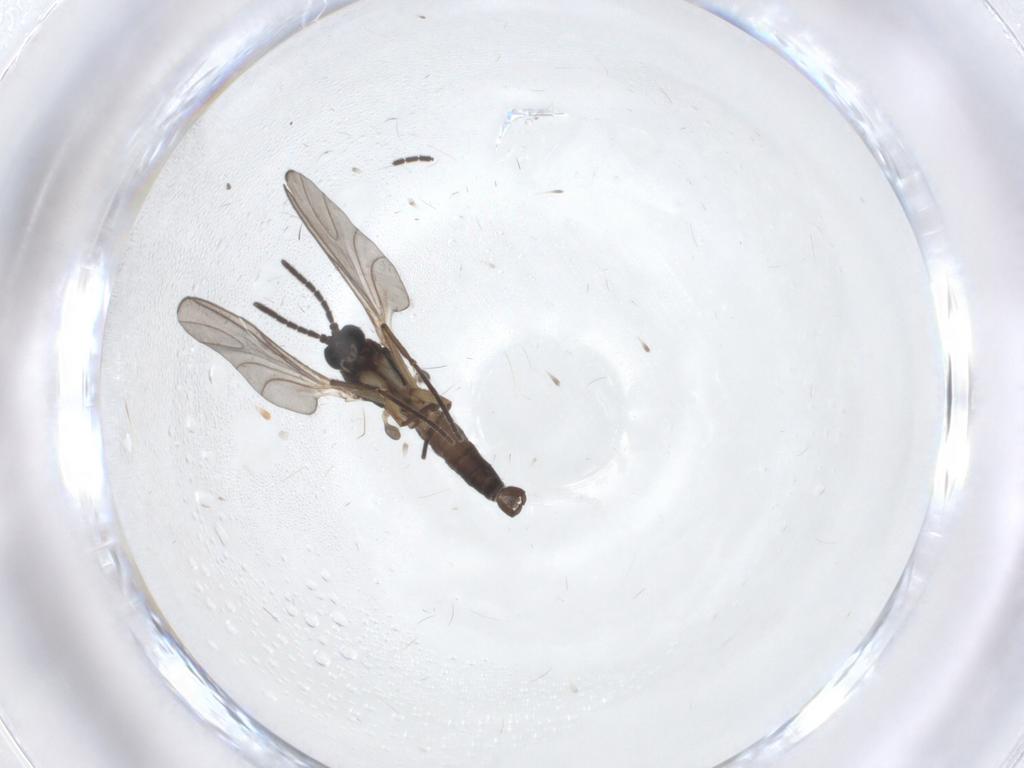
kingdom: Animalia
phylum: Arthropoda
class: Insecta
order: Diptera
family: Sciaridae
